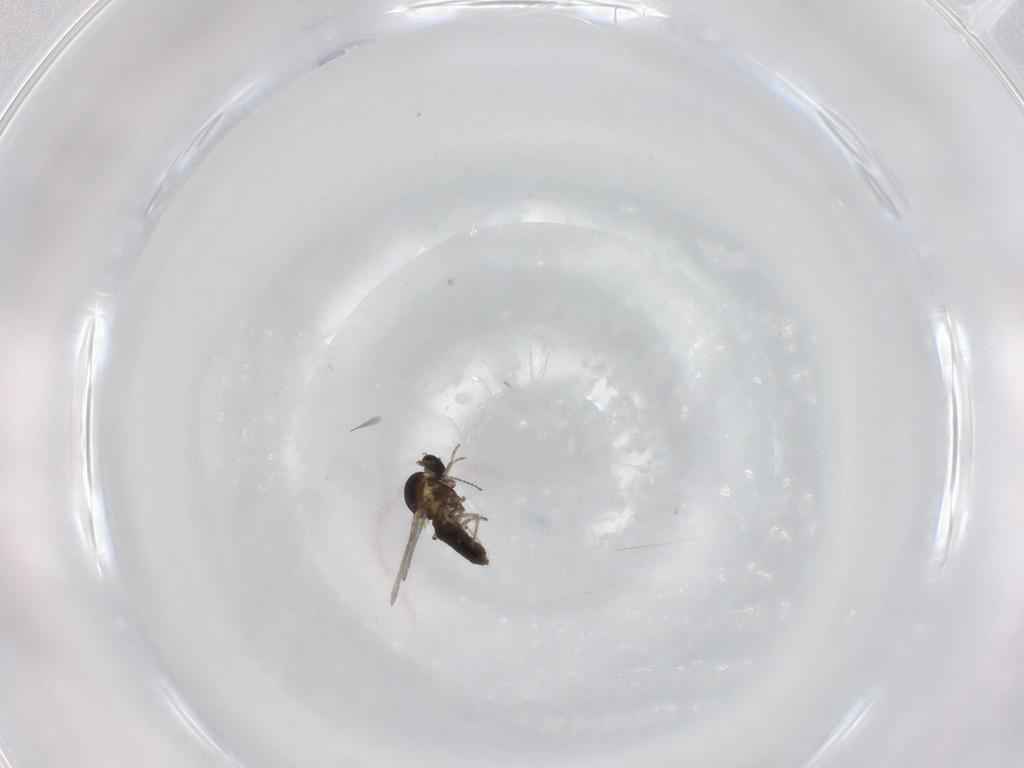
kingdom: Animalia
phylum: Arthropoda
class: Insecta
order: Diptera
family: Ceratopogonidae
